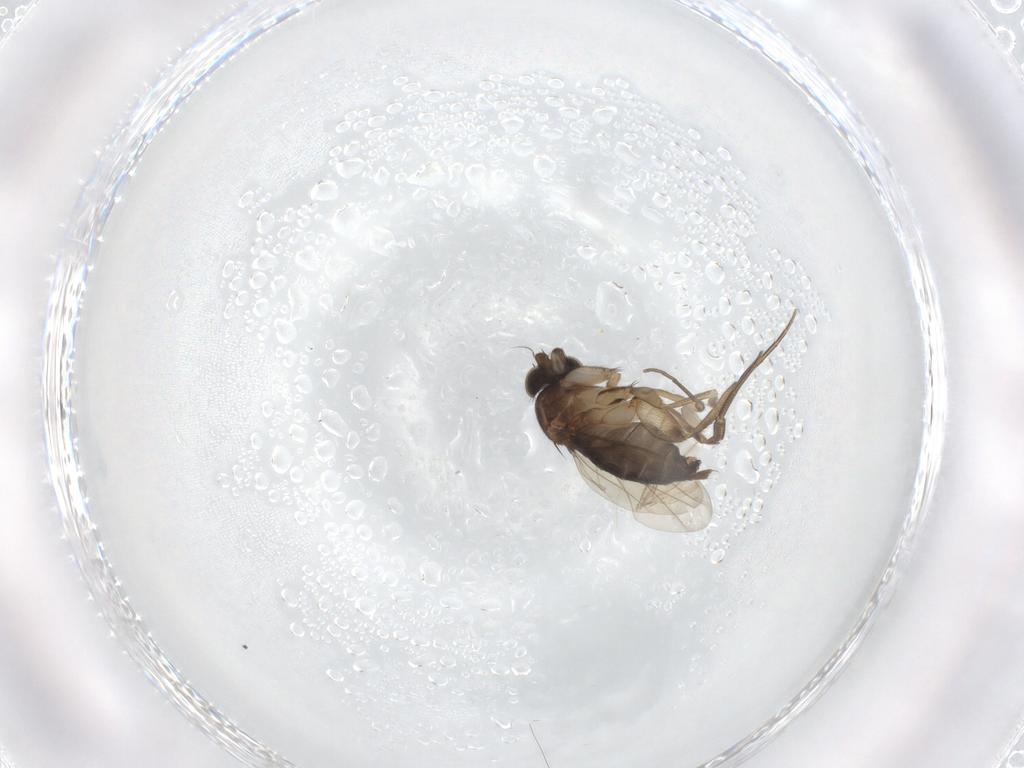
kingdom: Animalia
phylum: Arthropoda
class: Insecta
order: Diptera
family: Phoridae
